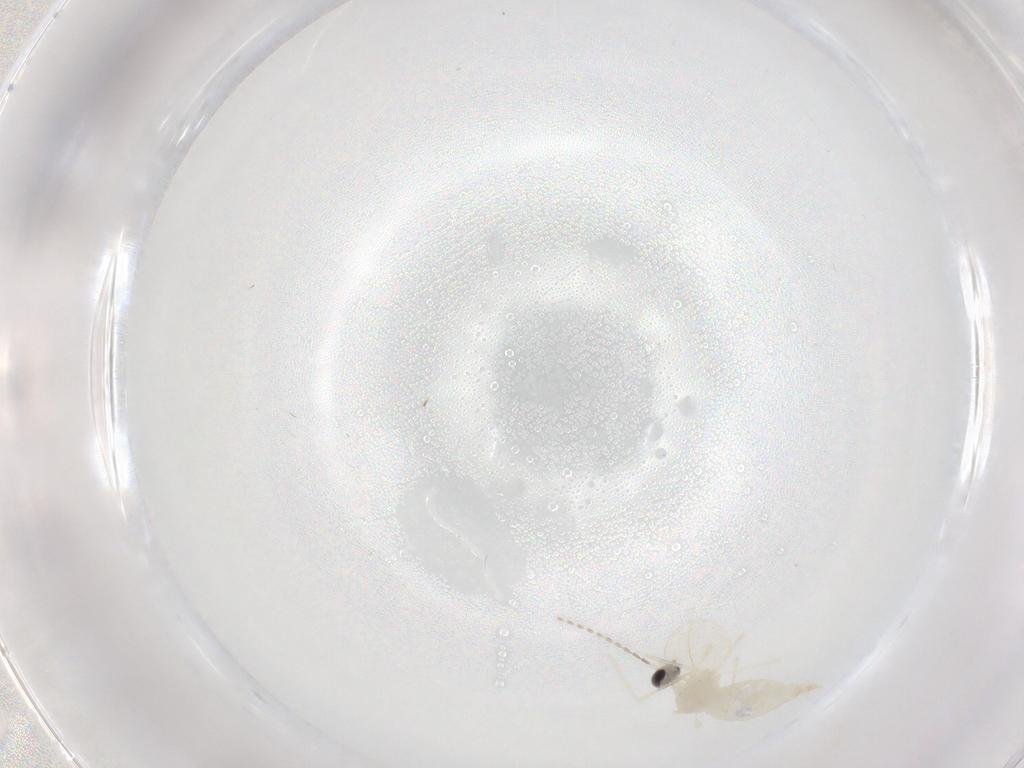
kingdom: Animalia
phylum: Arthropoda
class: Insecta
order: Diptera
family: Cecidomyiidae
